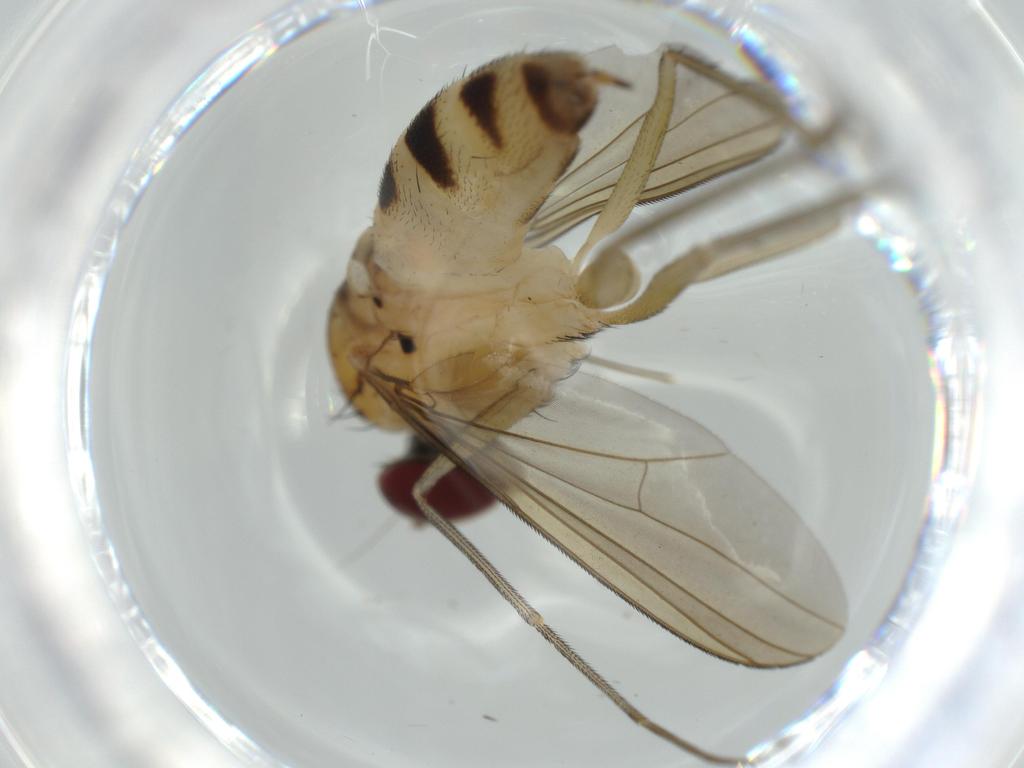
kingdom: Animalia
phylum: Arthropoda
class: Insecta
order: Diptera
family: Dolichopodidae
